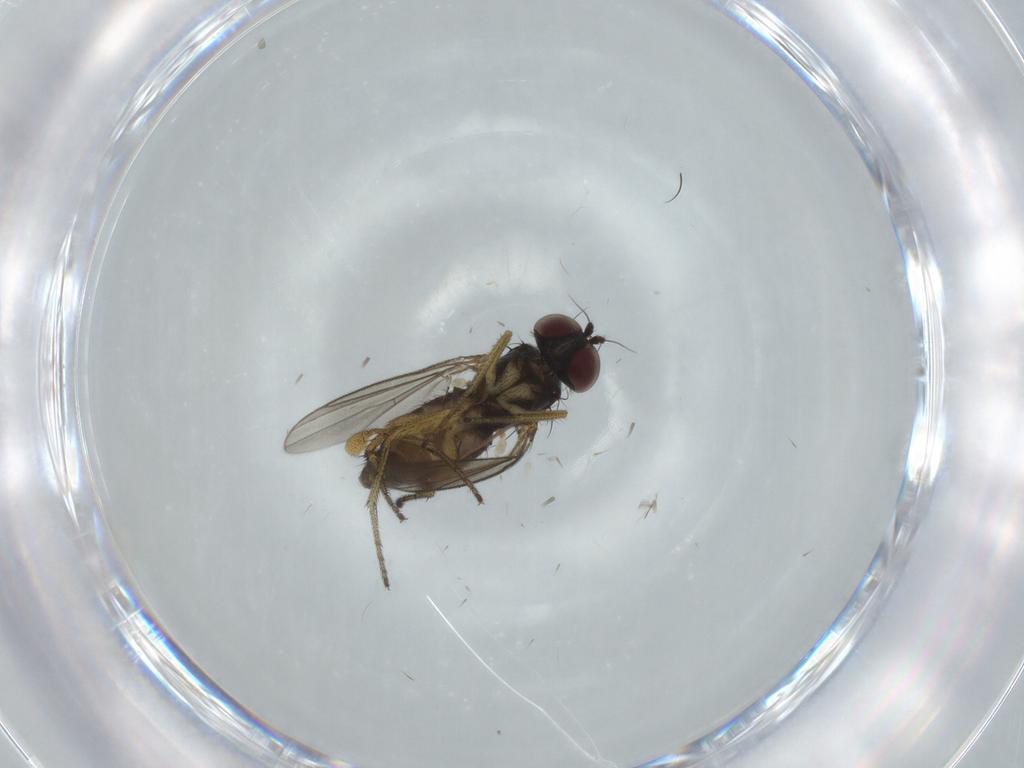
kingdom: Animalia
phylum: Arthropoda
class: Insecta
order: Diptera
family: Dolichopodidae
